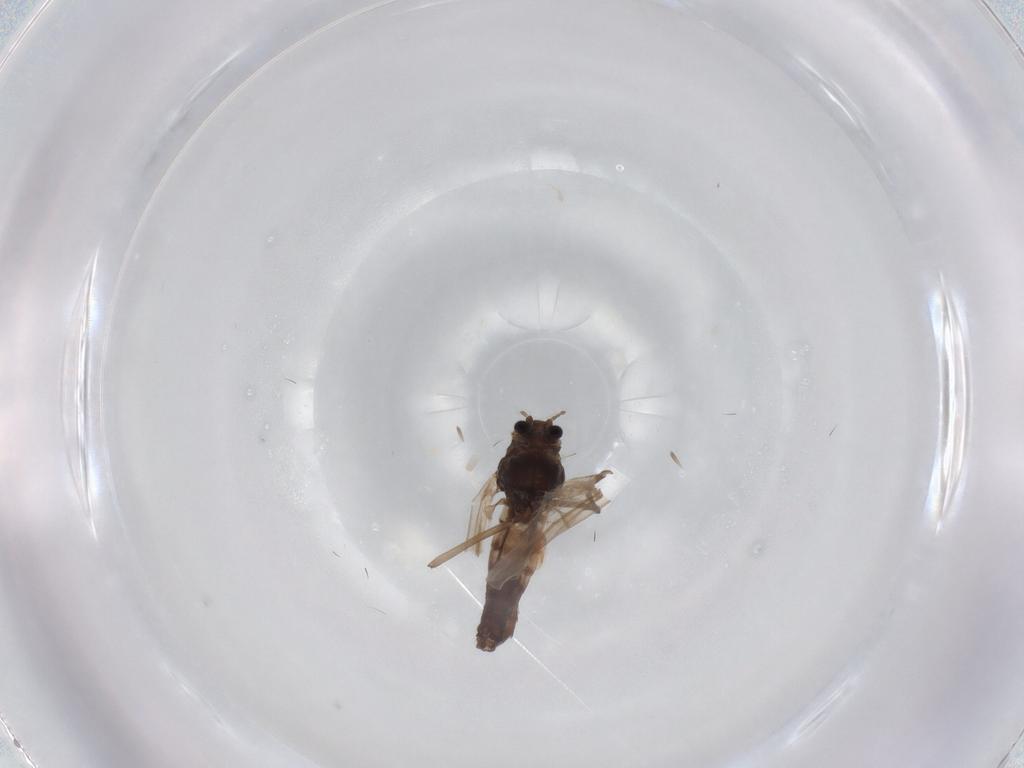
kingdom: Animalia
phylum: Arthropoda
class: Insecta
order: Diptera
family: Chironomidae
